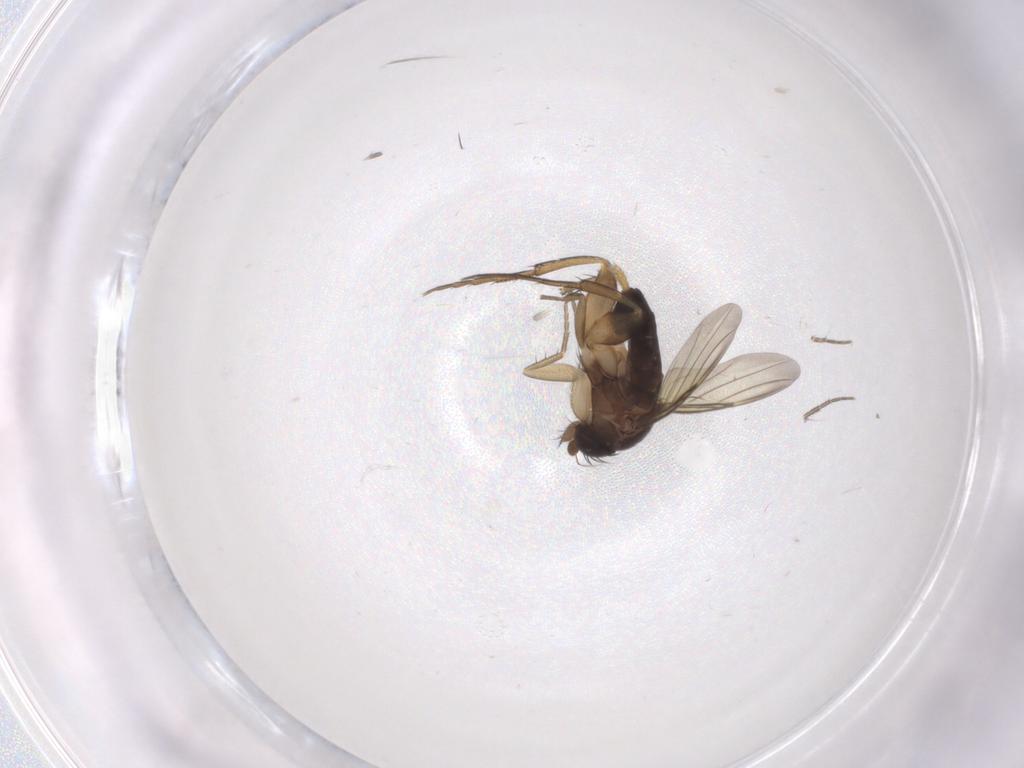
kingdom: Animalia
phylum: Arthropoda
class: Insecta
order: Diptera
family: Phoridae
